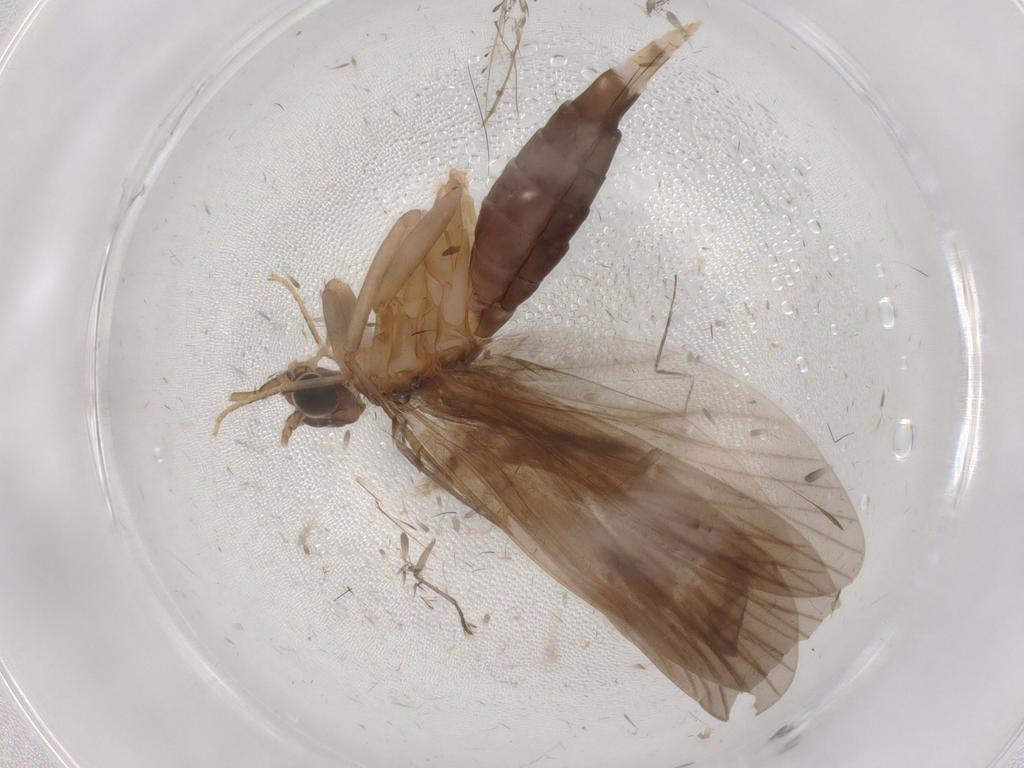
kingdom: Animalia
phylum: Arthropoda
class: Insecta
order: Trichoptera
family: Philopotamidae
